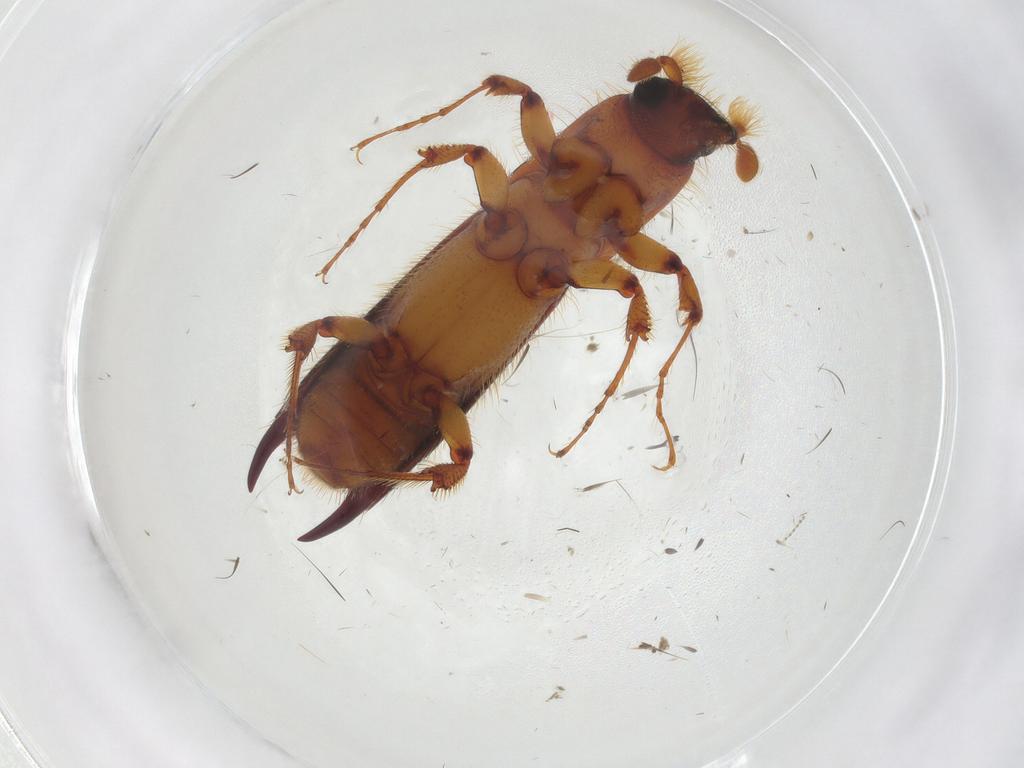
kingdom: Animalia
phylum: Arthropoda
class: Insecta
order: Coleoptera
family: Curculionidae
